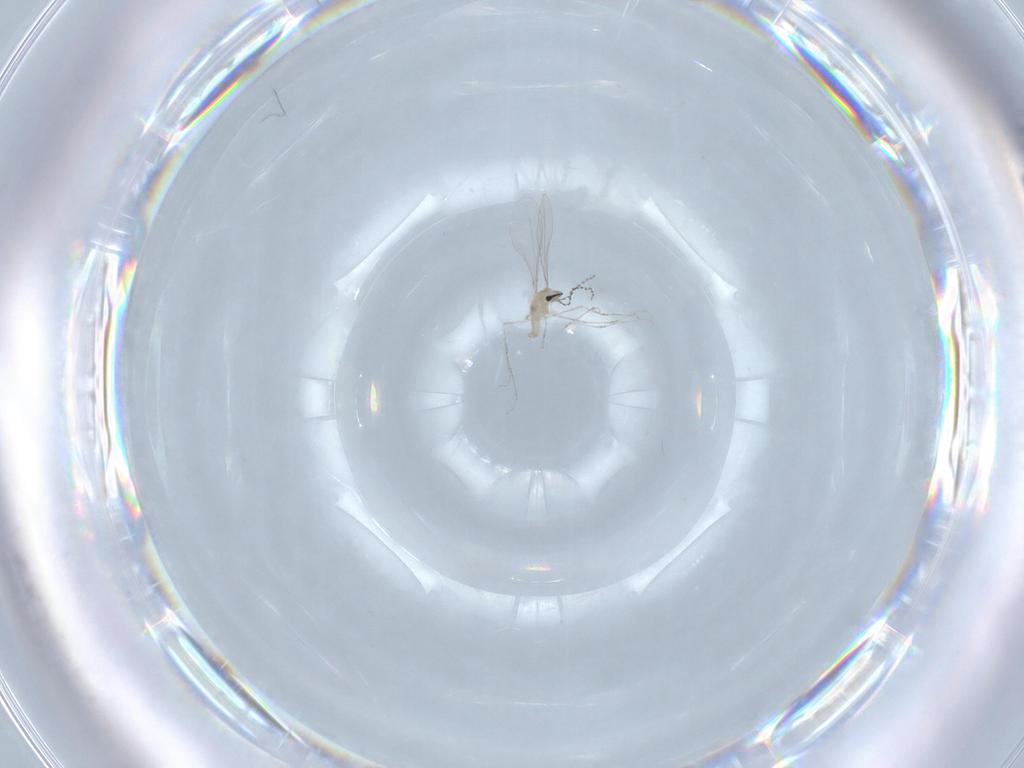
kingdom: Animalia
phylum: Arthropoda
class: Insecta
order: Diptera
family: Cecidomyiidae
